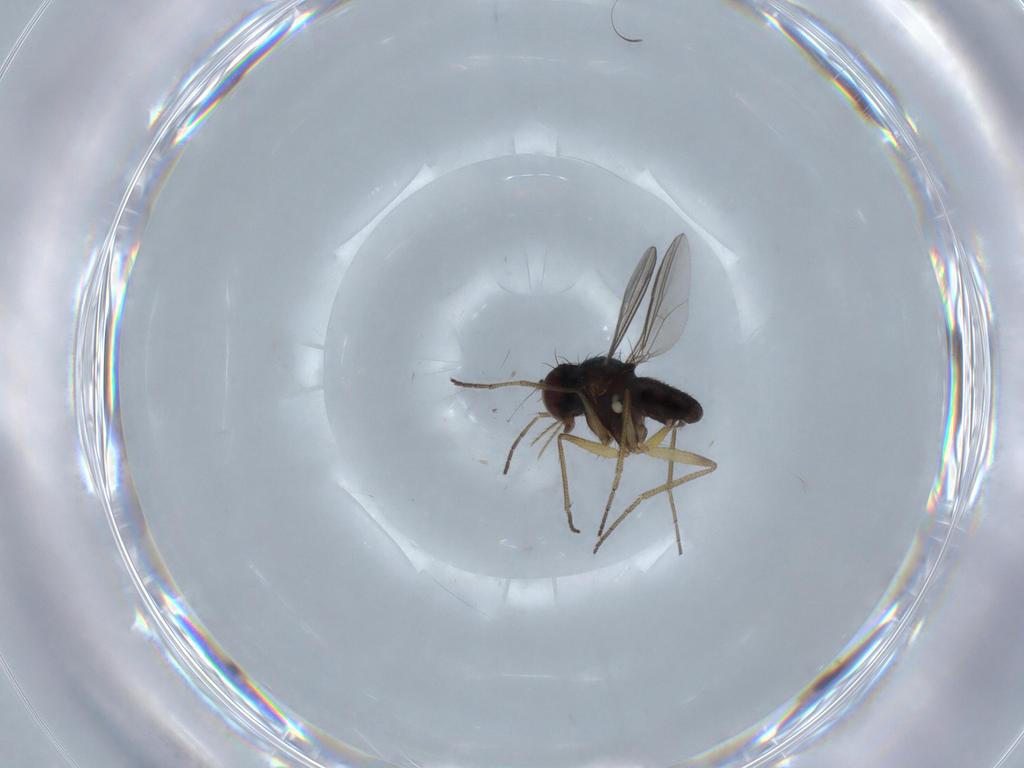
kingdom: Animalia
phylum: Arthropoda
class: Insecta
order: Diptera
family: Dolichopodidae
